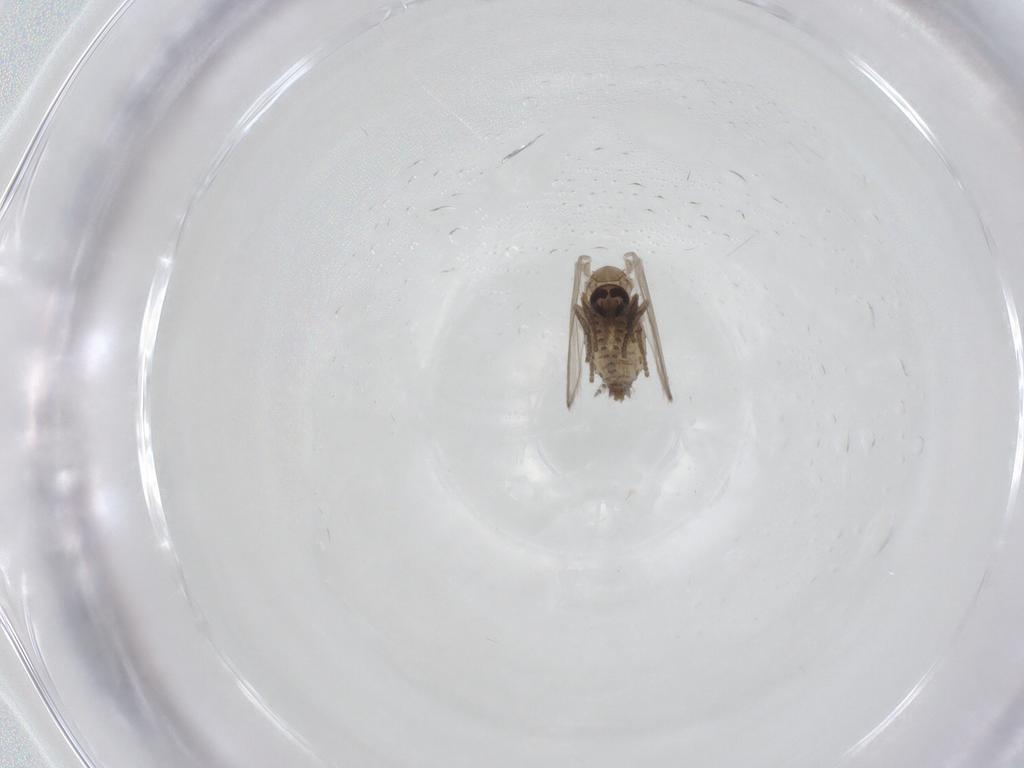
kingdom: Animalia
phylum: Arthropoda
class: Insecta
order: Diptera
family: Psychodidae
